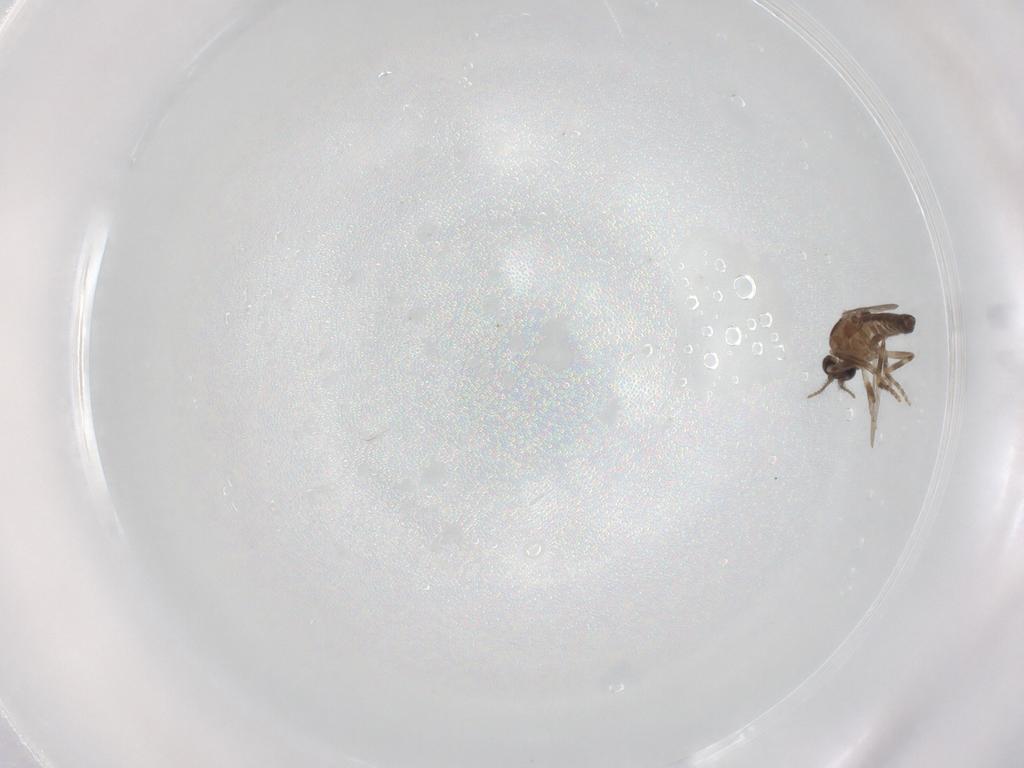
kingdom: Animalia
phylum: Arthropoda
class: Insecta
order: Diptera
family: Ceratopogonidae
